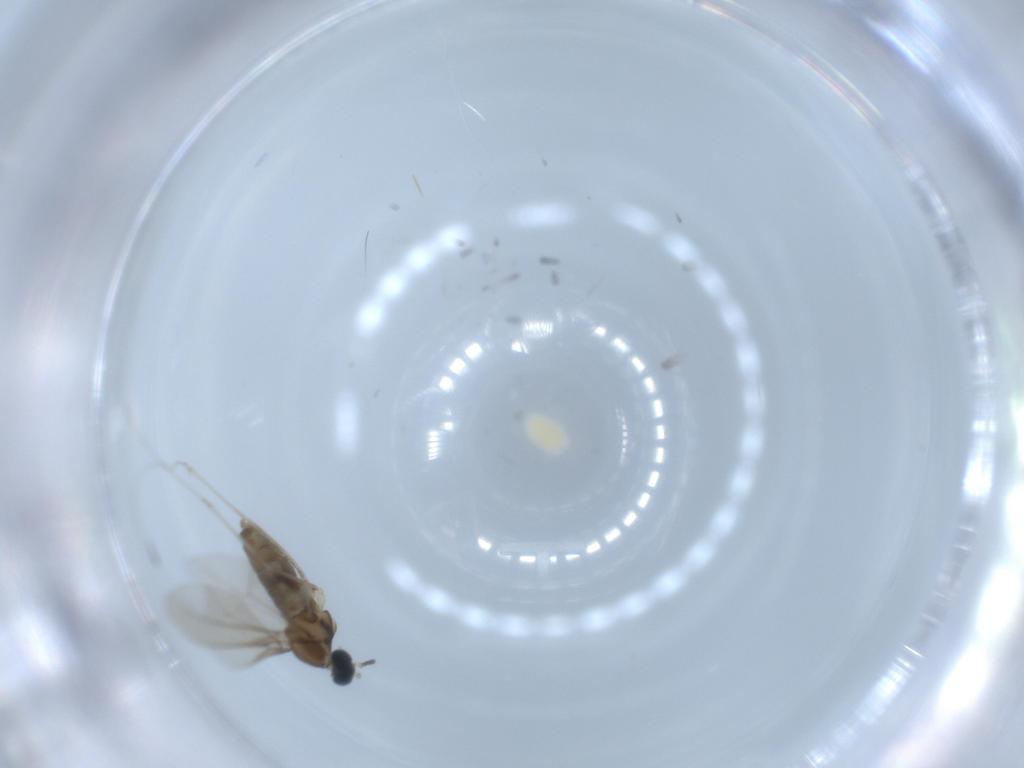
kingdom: Animalia
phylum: Arthropoda
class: Insecta
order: Diptera
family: Cecidomyiidae
